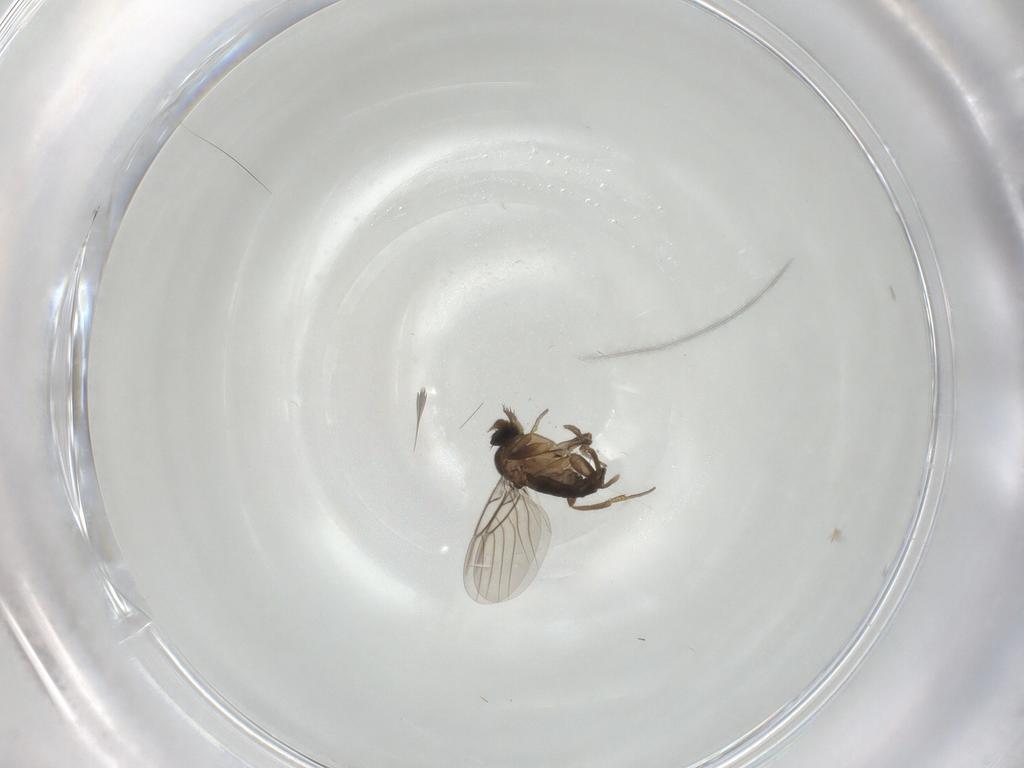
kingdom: Animalia
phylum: Arthropoda
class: Insecta
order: Diptera
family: Phoridae
